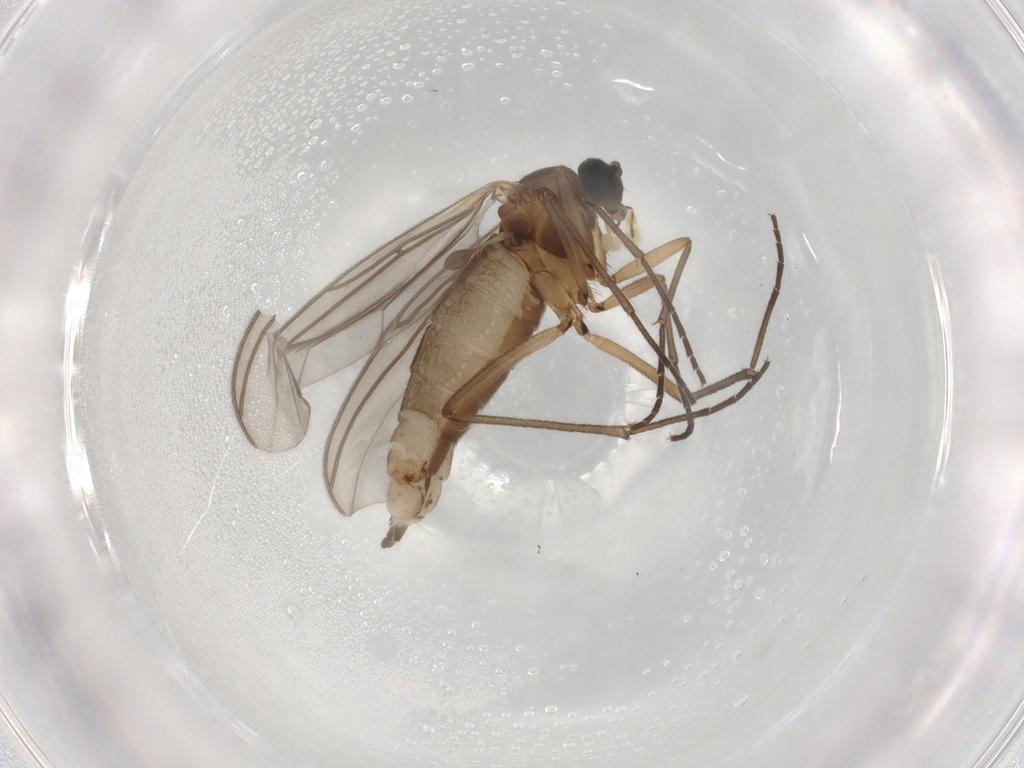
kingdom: Animalia
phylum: Arthropoda
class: Insecta
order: Diptera
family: Sciaridae
